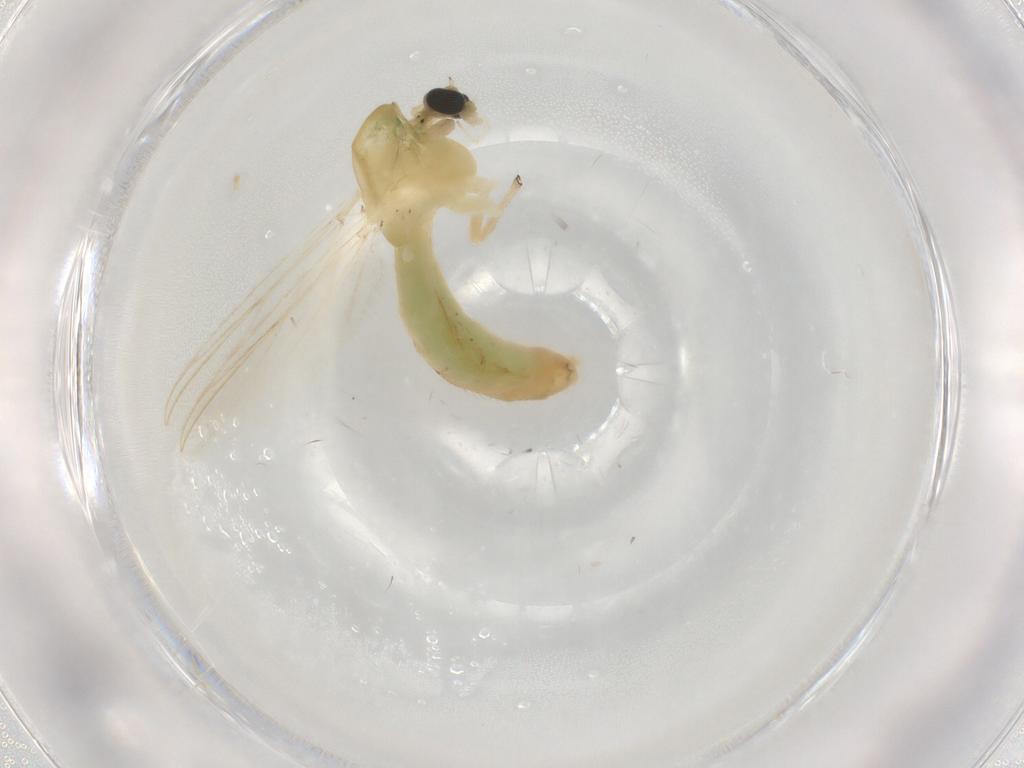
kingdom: Animalia
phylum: Arthropoda
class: Insecta
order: Diptera
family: Chironomidae
